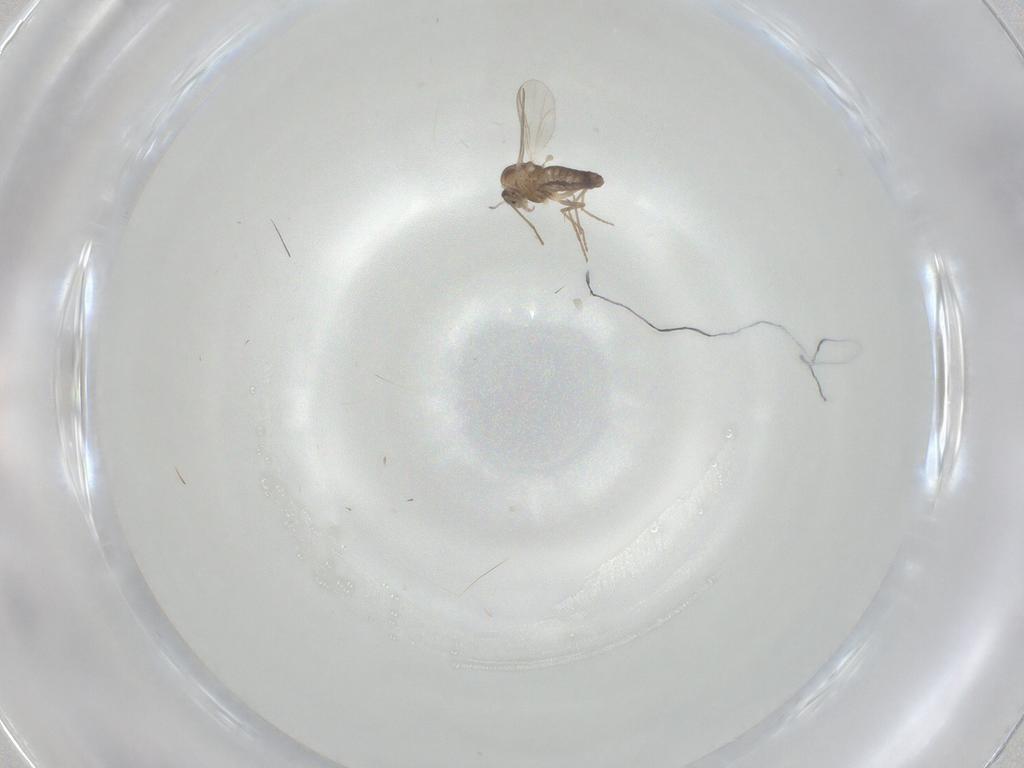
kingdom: Animalia
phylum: Arthropoda
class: Insecta
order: Diptera
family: Chironomidae
